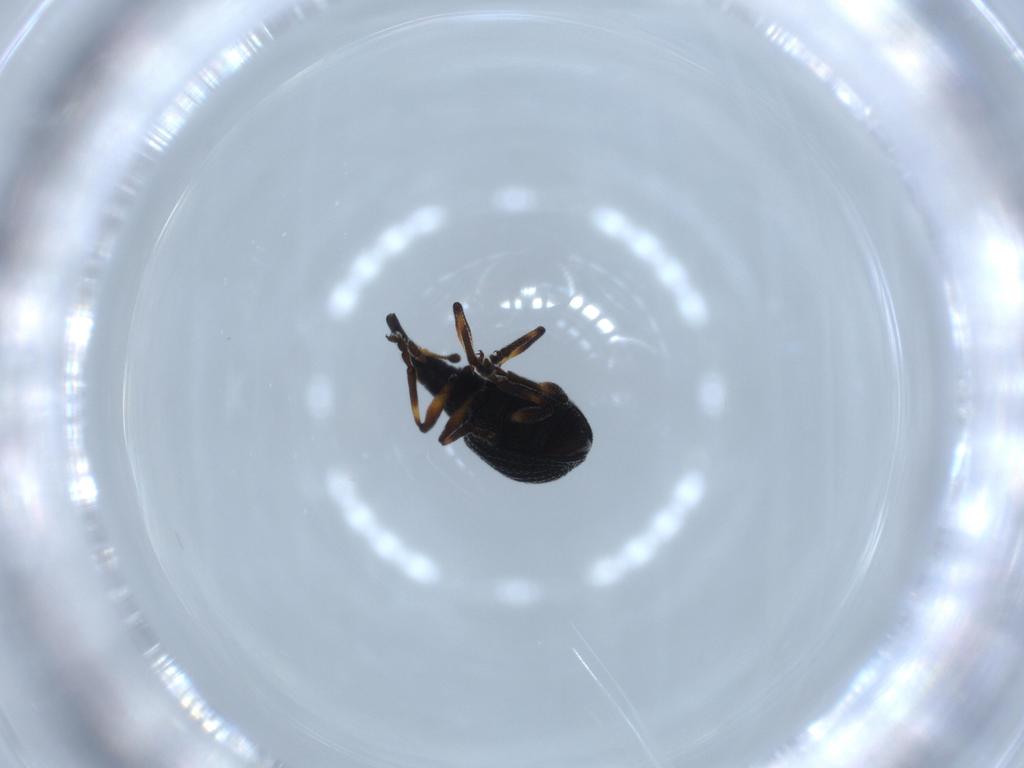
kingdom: Animalia
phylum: Arthropoda
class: Insecta
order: Coleoptera
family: Brentidae
